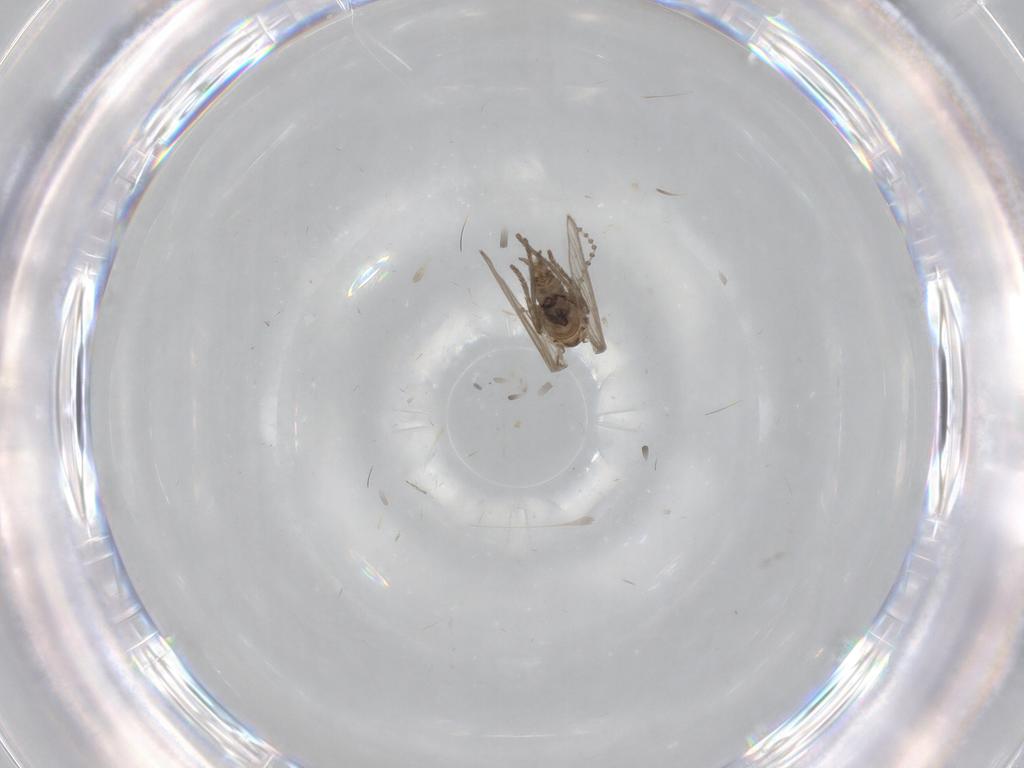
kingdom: Animalia
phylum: Arthropoda
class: Insecta
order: Diptera
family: Psychodidae
